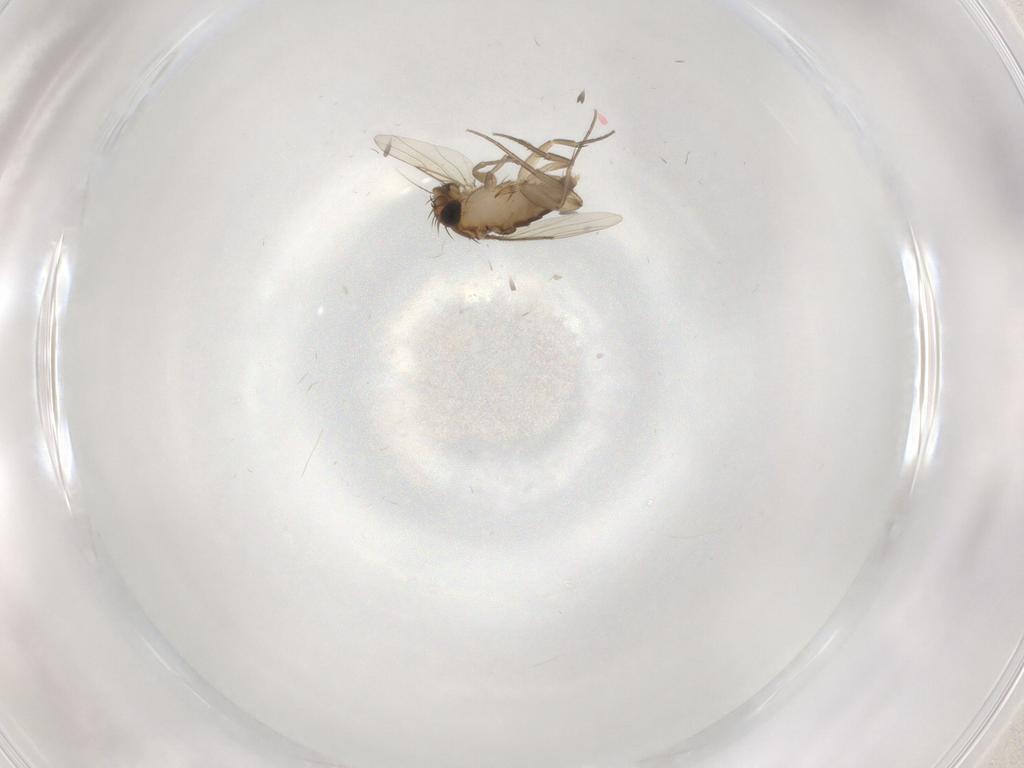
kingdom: Animalia
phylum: Arthropoda
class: Insecta
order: Diptera
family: Phoridae
